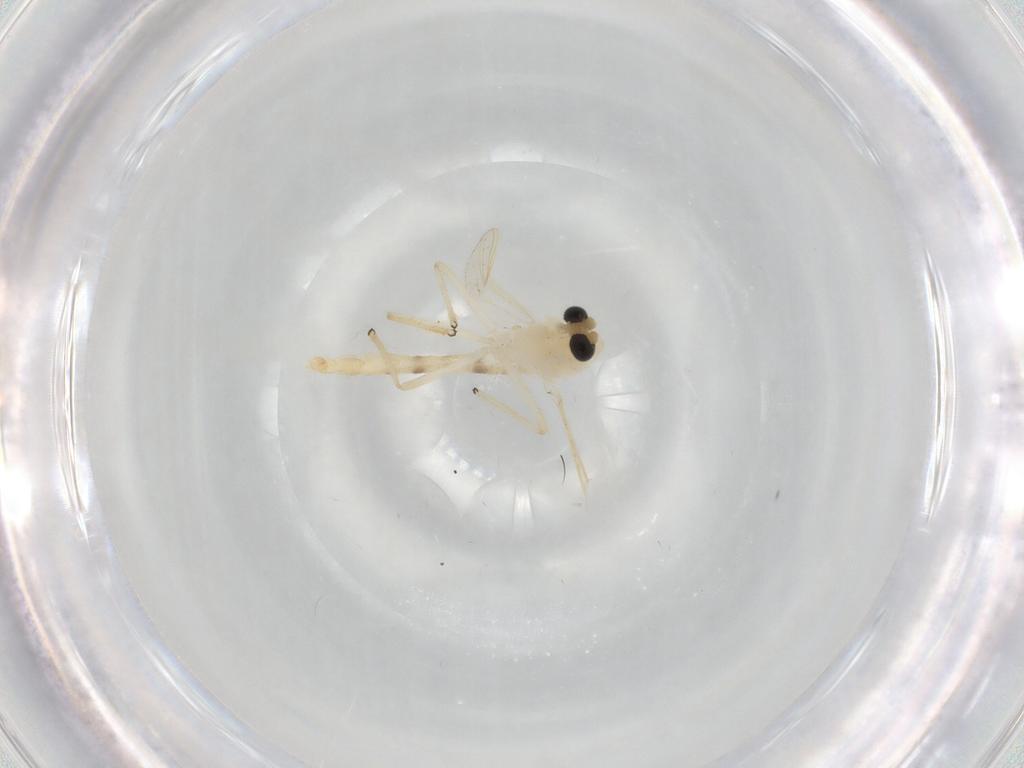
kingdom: Animalia
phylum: Arthropoda
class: Insecta
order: Diptera
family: Chironomidae
